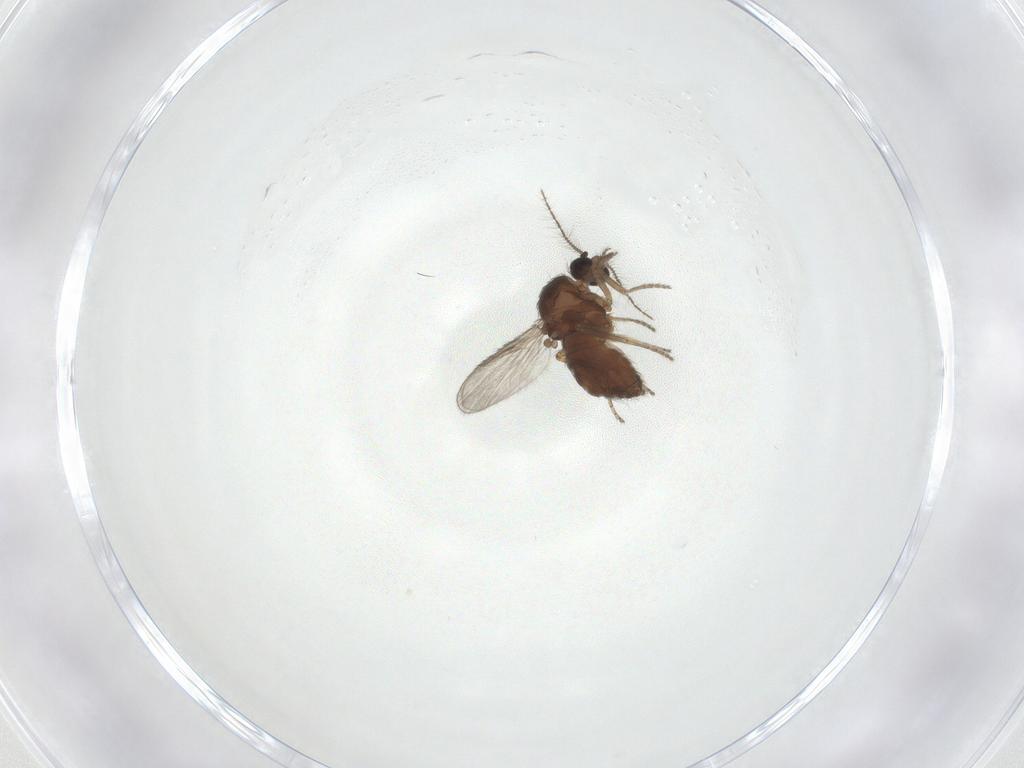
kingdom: Animalia
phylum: Arthropoda
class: Insecta
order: Diptera
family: Ceratopogonidae
